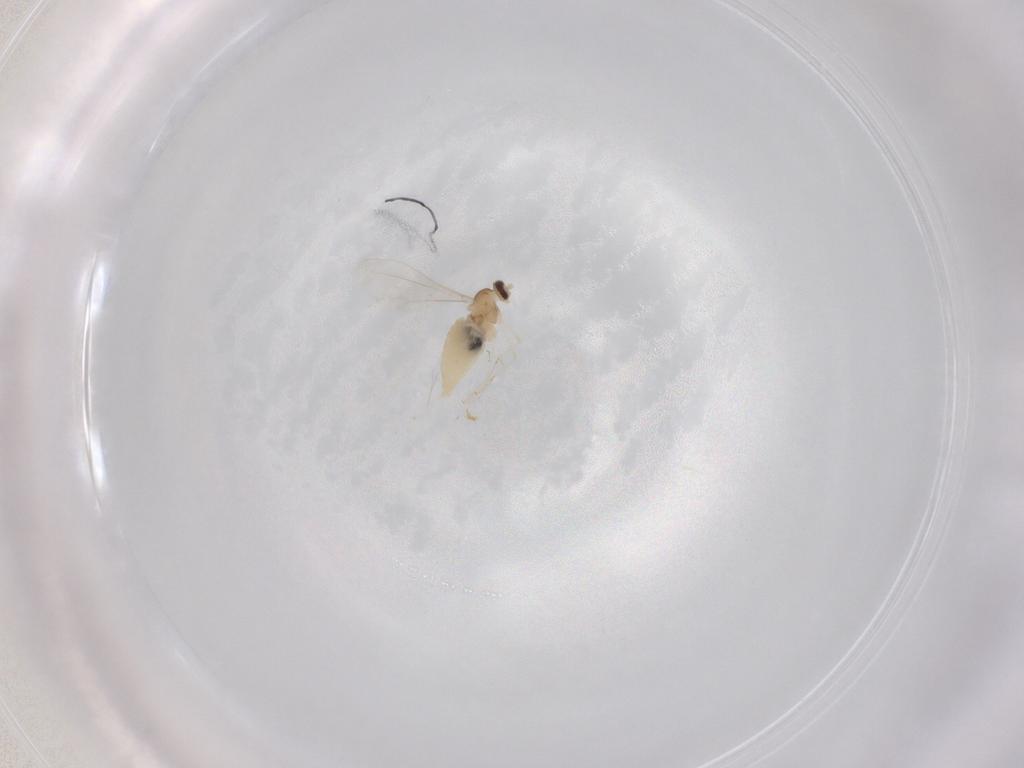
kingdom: Animalia
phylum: Arthropoda
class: Insecta
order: Diptera
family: Cecidomyiidae
